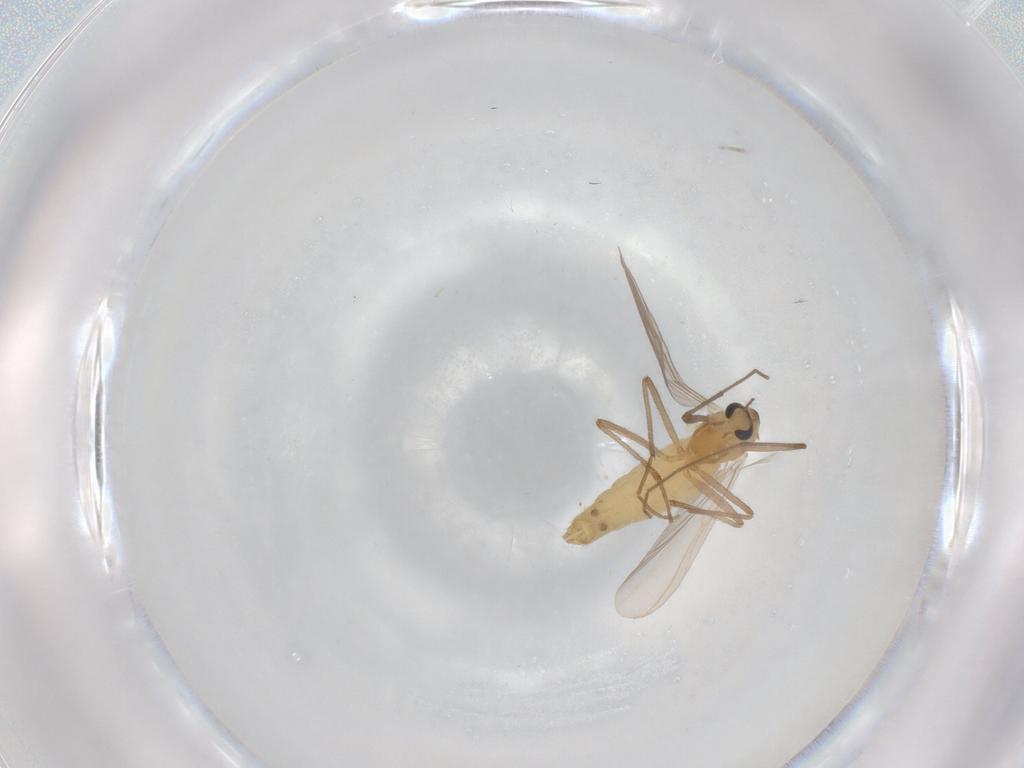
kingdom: Animalia
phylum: Arthropoda
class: Insecta
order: Diptera
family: Chironomidae
